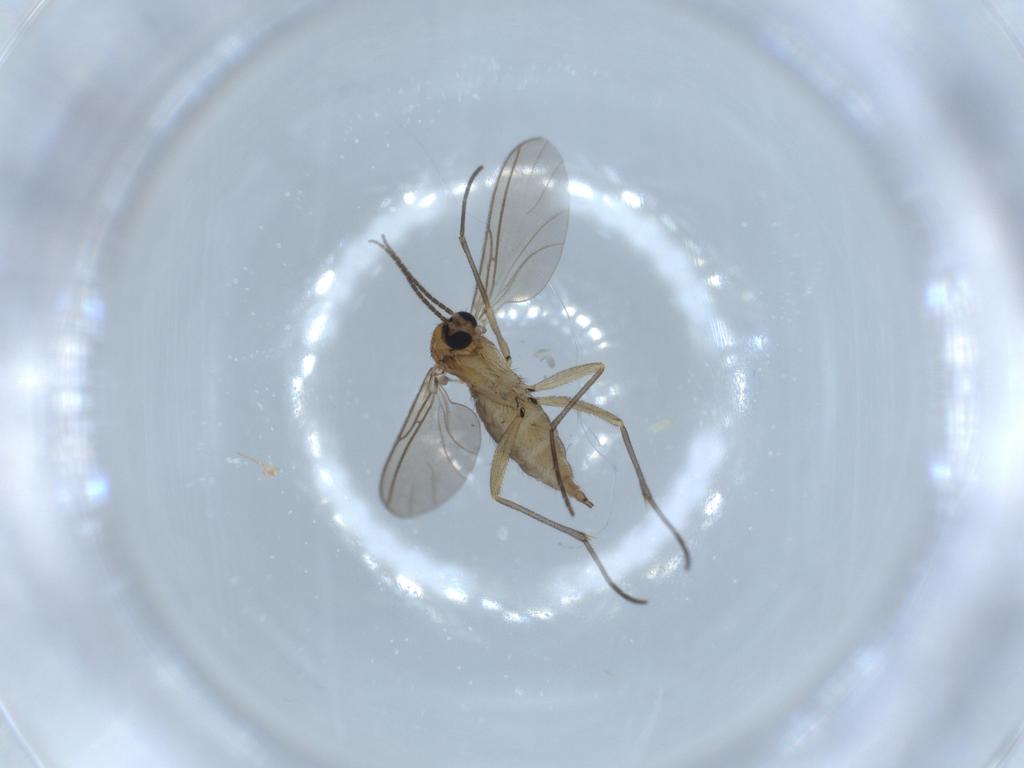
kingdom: Animalia
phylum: Arthropoda
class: Insecta
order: Diptera
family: Sciaridae
